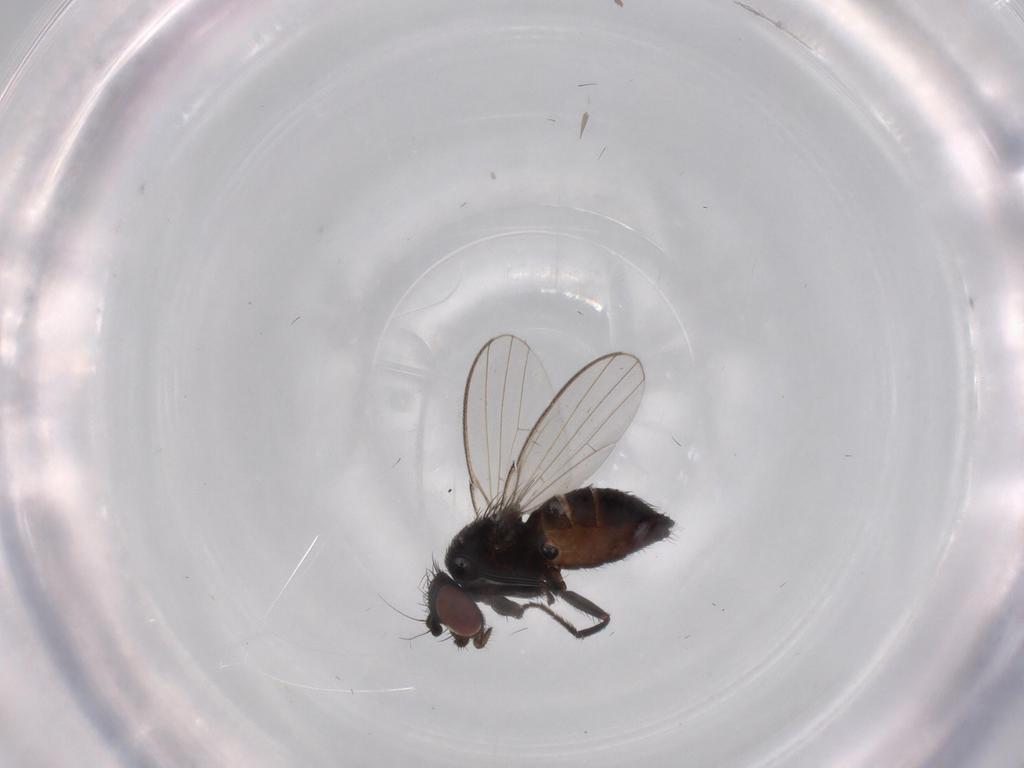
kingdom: Animalia
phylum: Arthropoda
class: Insecta
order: Diptera
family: Milichiidae
